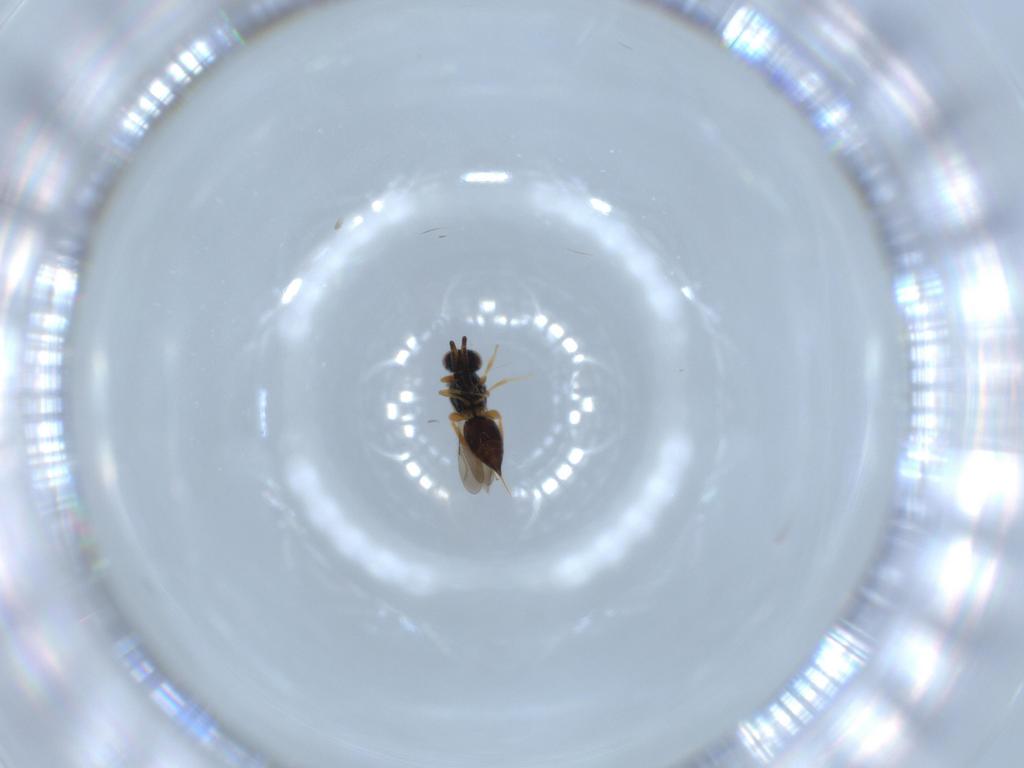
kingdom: Animalia
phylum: Arthropoda
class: Insecta
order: Hymenoptera
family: Ceraphronidae
